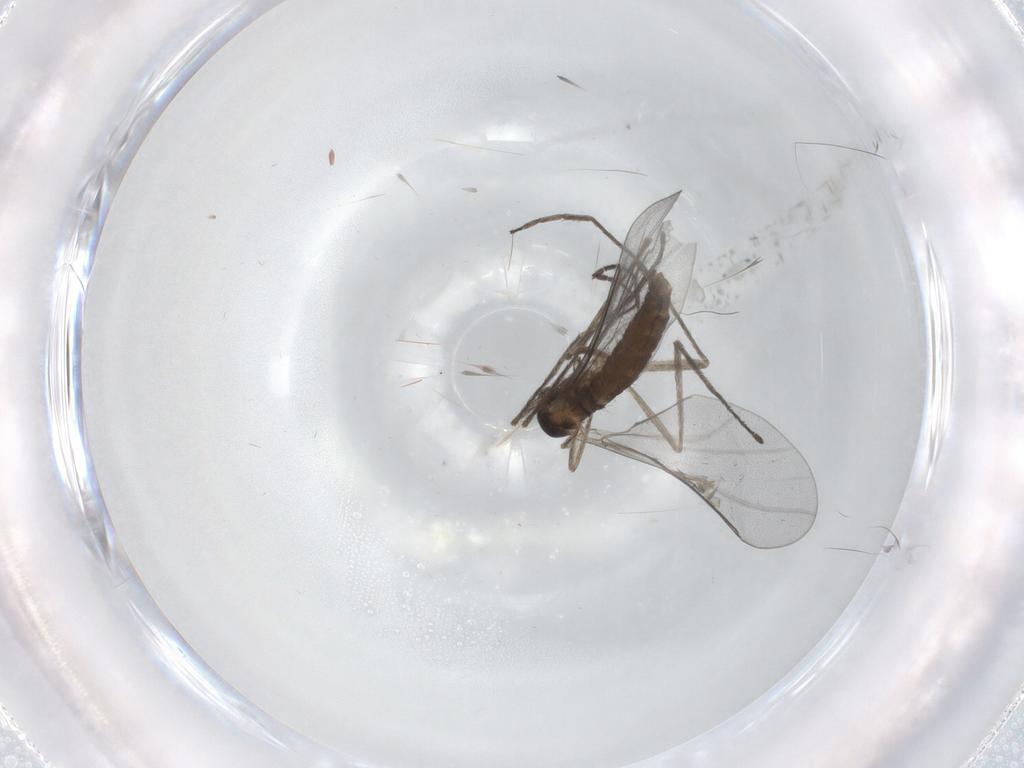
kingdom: Animalia
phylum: Arthropoda
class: Insecta
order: Diptera
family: Cecidomyiidae
